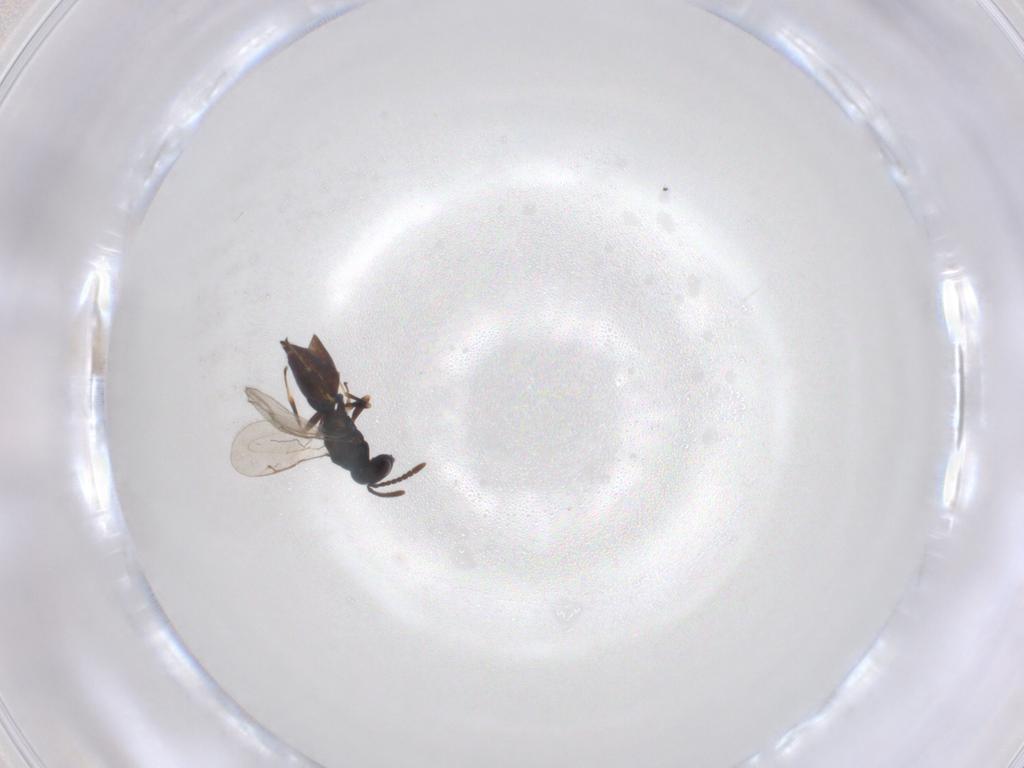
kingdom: Animalia
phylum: Arthropoda
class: Insecta
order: Hymenoptera
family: Pteromalidae
